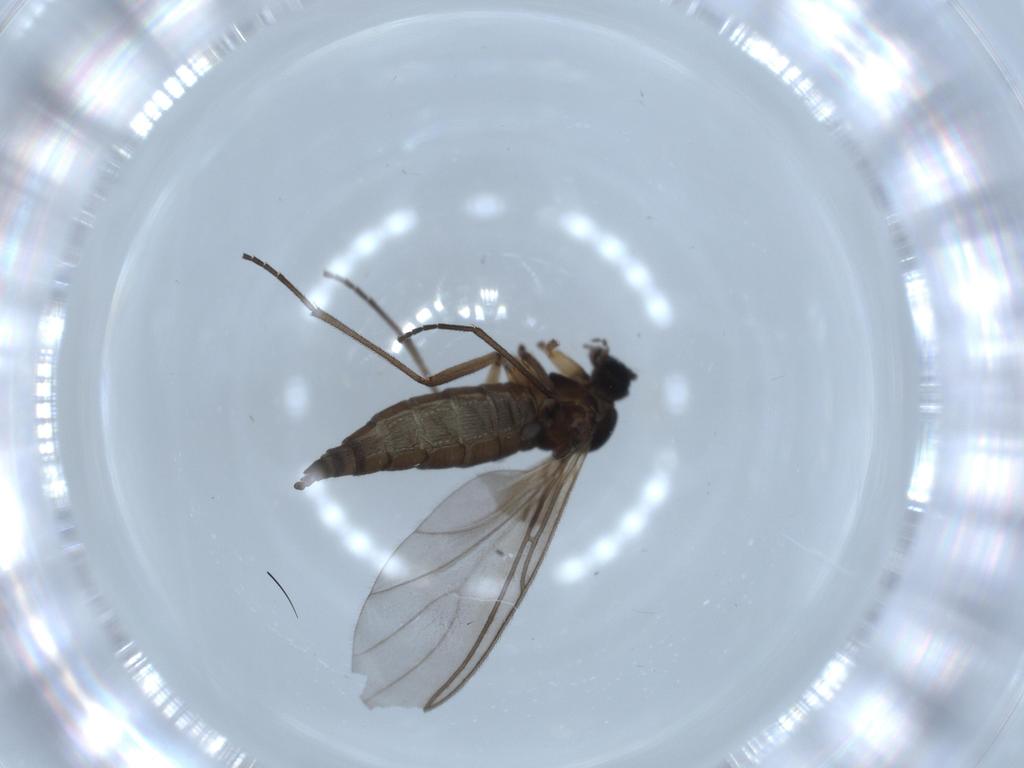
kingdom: Animalia
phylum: Arthropoda
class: Insecta
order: Diptera
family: Sciaridae
